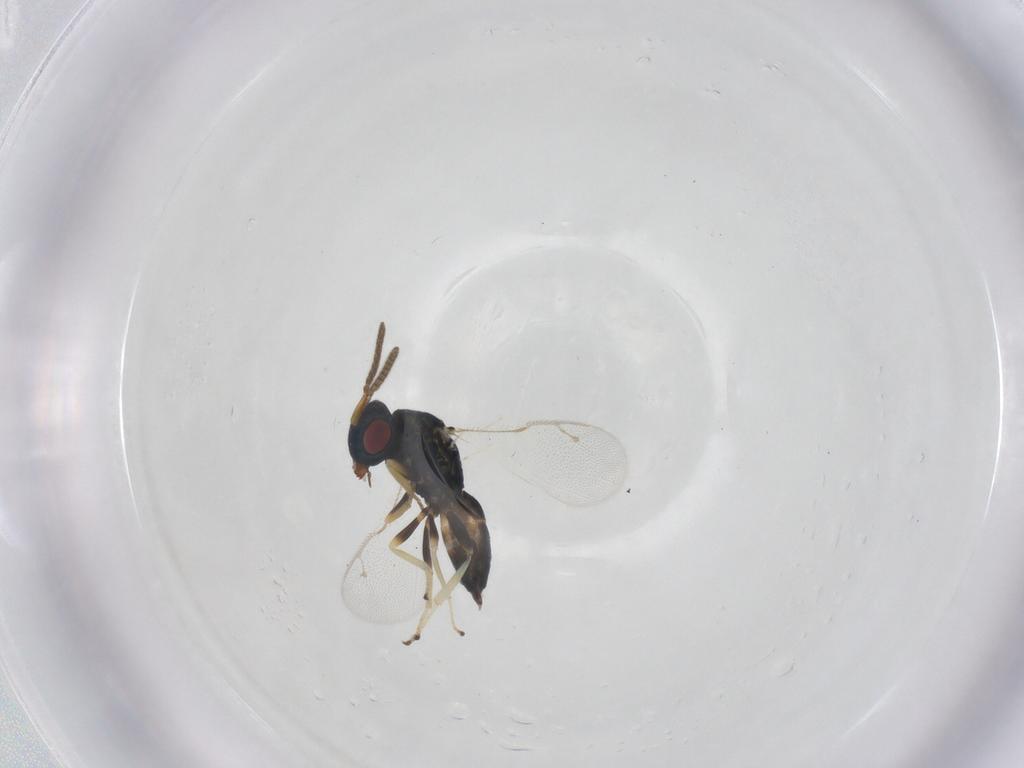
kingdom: Animalia
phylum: Arthropoda
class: Insecta
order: Hymenoptera
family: Pteromalidae
